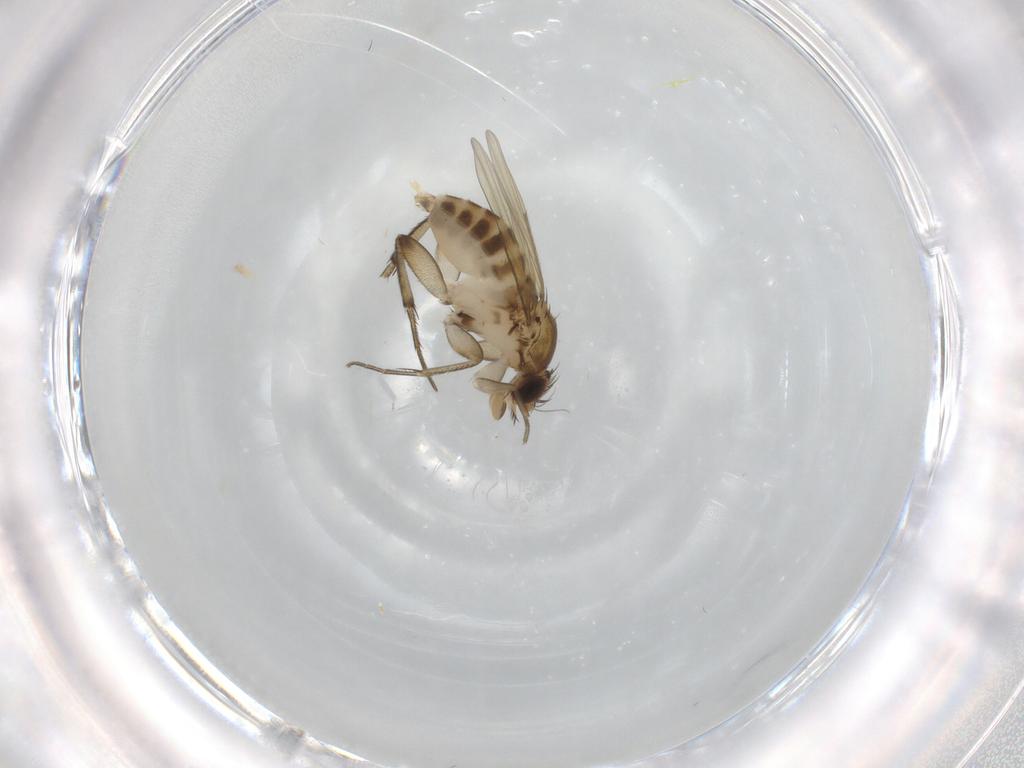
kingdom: Animalia
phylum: Arthropoda
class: Insecta
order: Diptera
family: Phoridae
